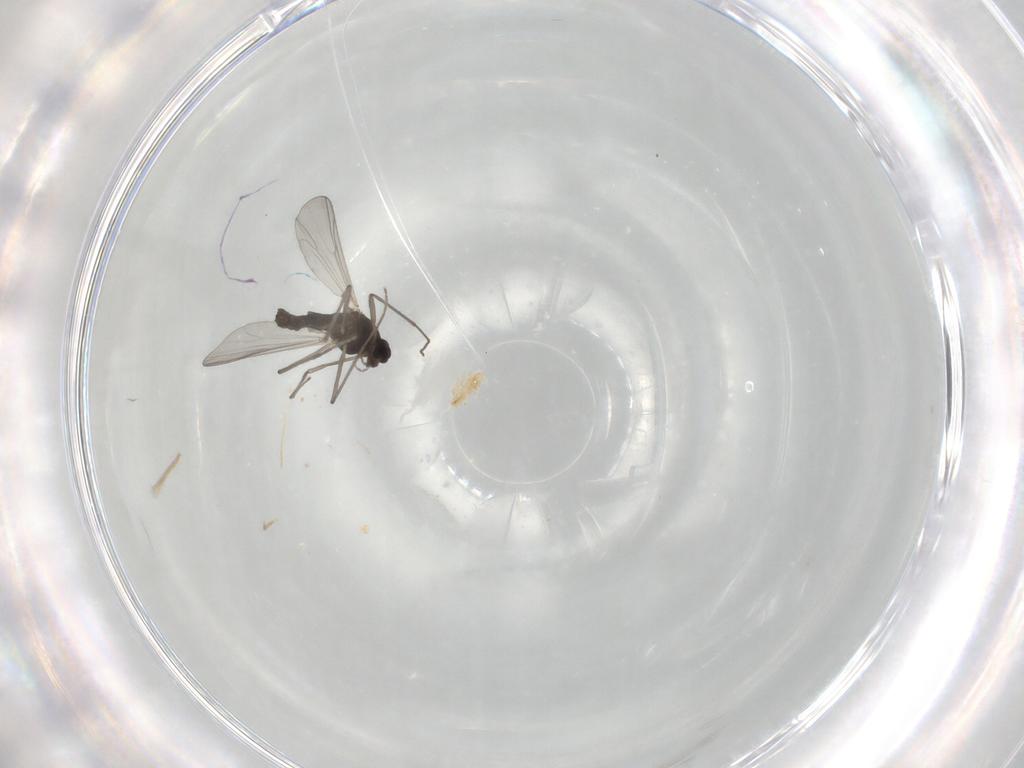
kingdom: Animalia
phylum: Arthropoda
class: Insecta
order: Diptera
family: Chironomidae
